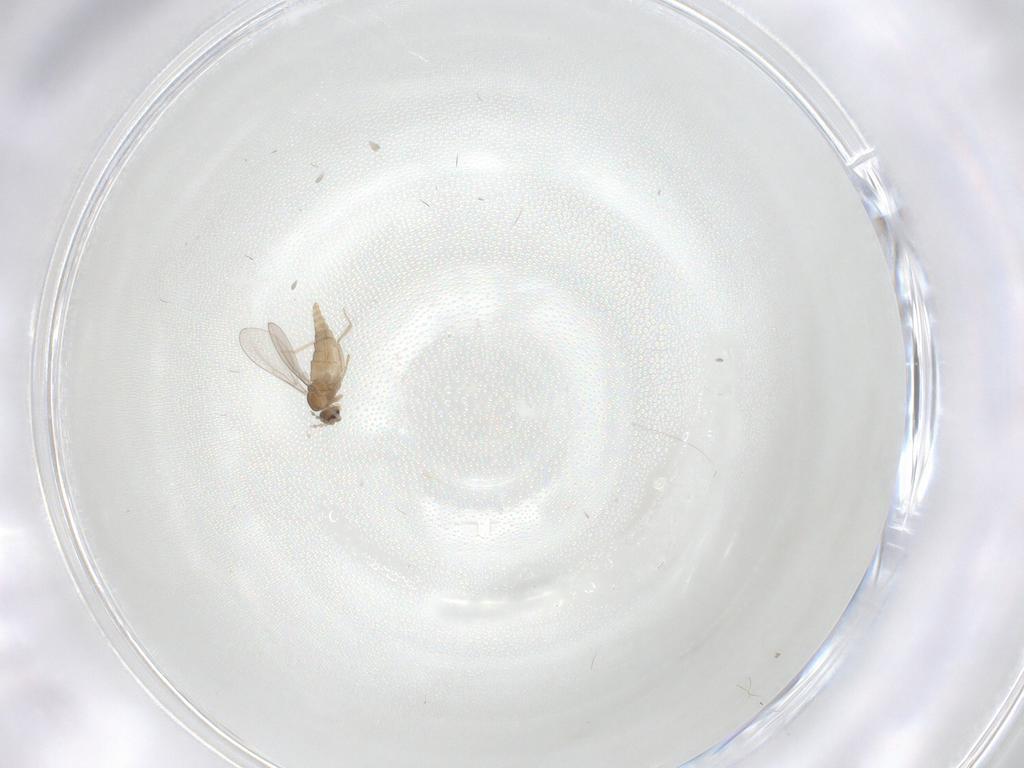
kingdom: Animalia
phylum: Arthropoda
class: Insecta
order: Diptera
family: Cecidomyiidae
